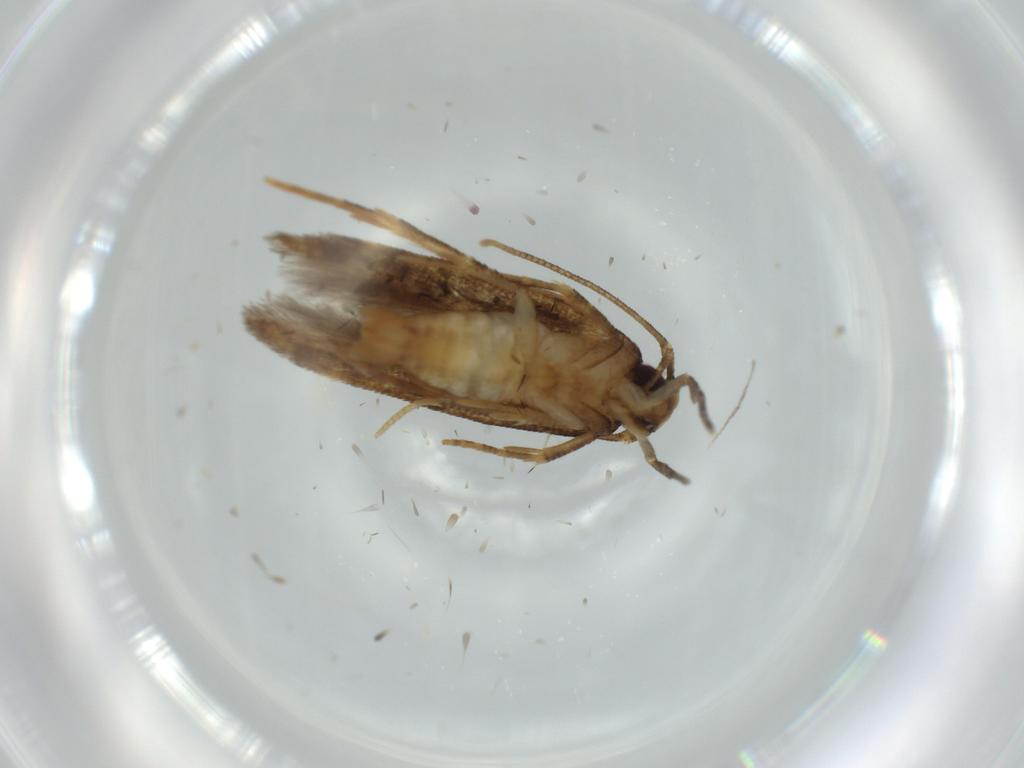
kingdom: Animalia
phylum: Arthropoda
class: Insecta
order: Lepidoptera
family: Cosmopterigidae
